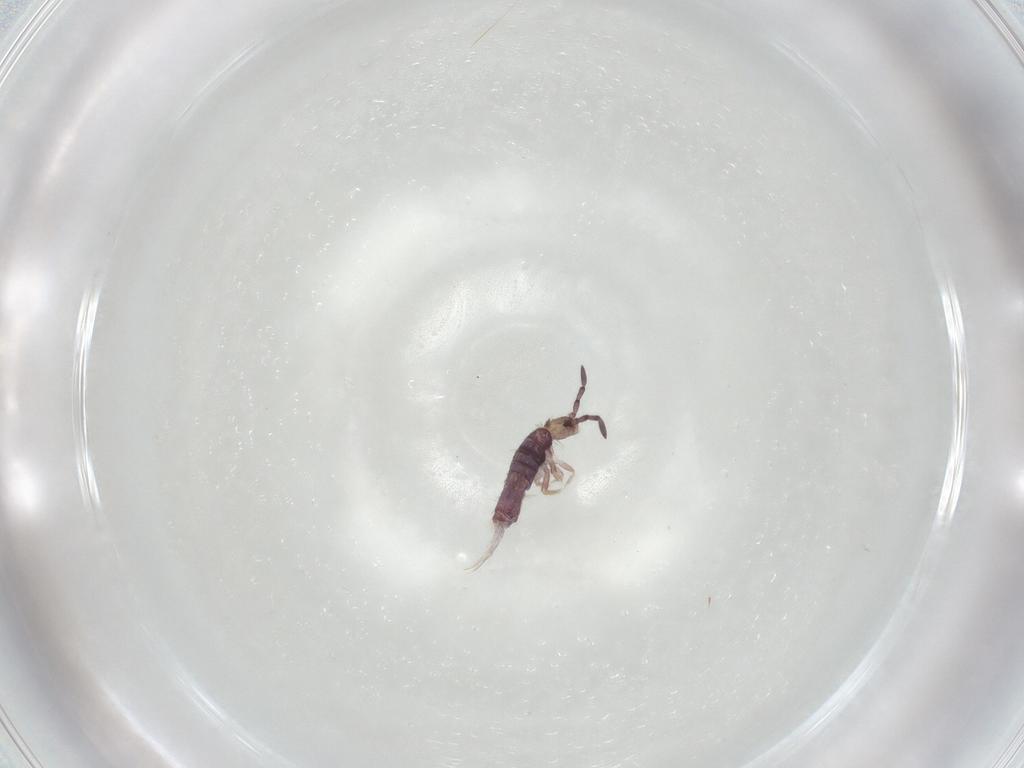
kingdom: Animalia
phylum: Arthropoda
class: Collembola
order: Entomobryomorpha
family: Entomobryidae
